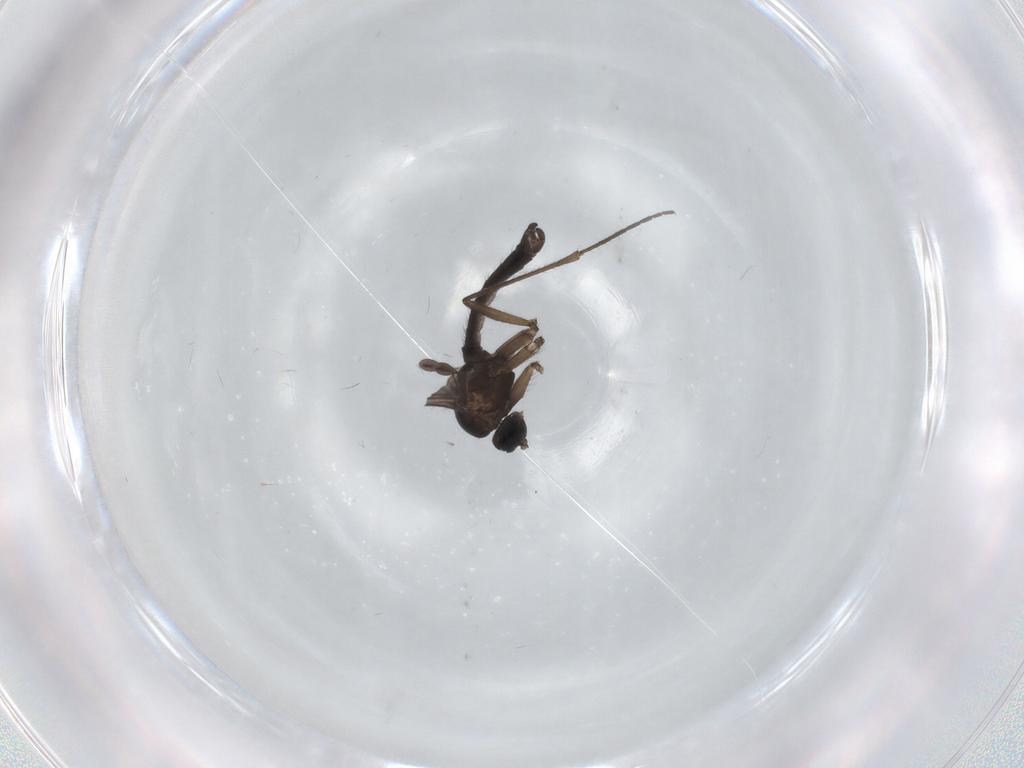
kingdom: Animalia
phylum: Arthropoda
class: Insecta
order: Diptera
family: Sciaridae
